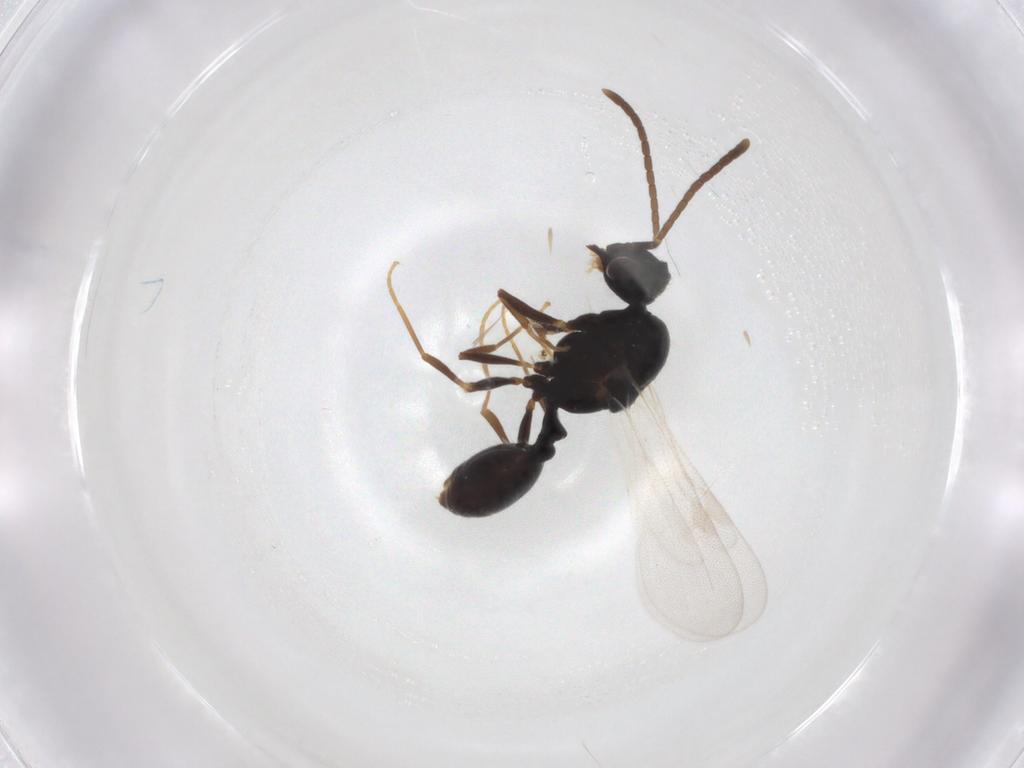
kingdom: Animalia
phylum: Arthropoda
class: Insecta
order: Hymenoptera
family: Formicidae
